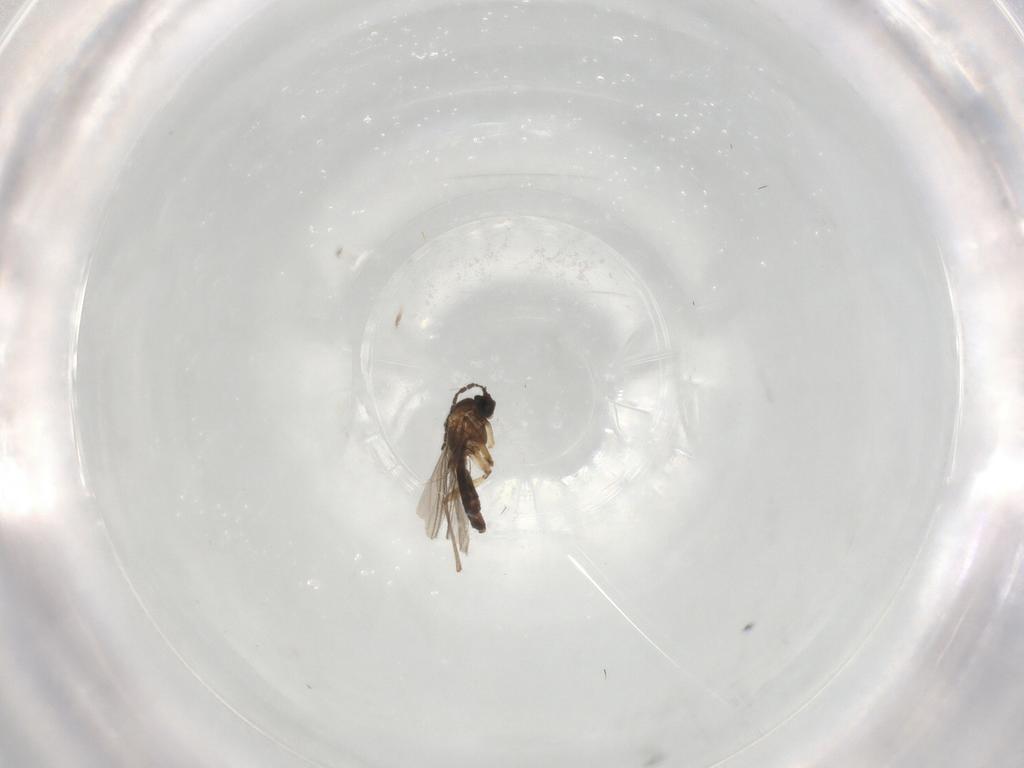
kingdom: Animalia
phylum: Arthropoda
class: Insecta
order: Diptera
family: Sciaridae
